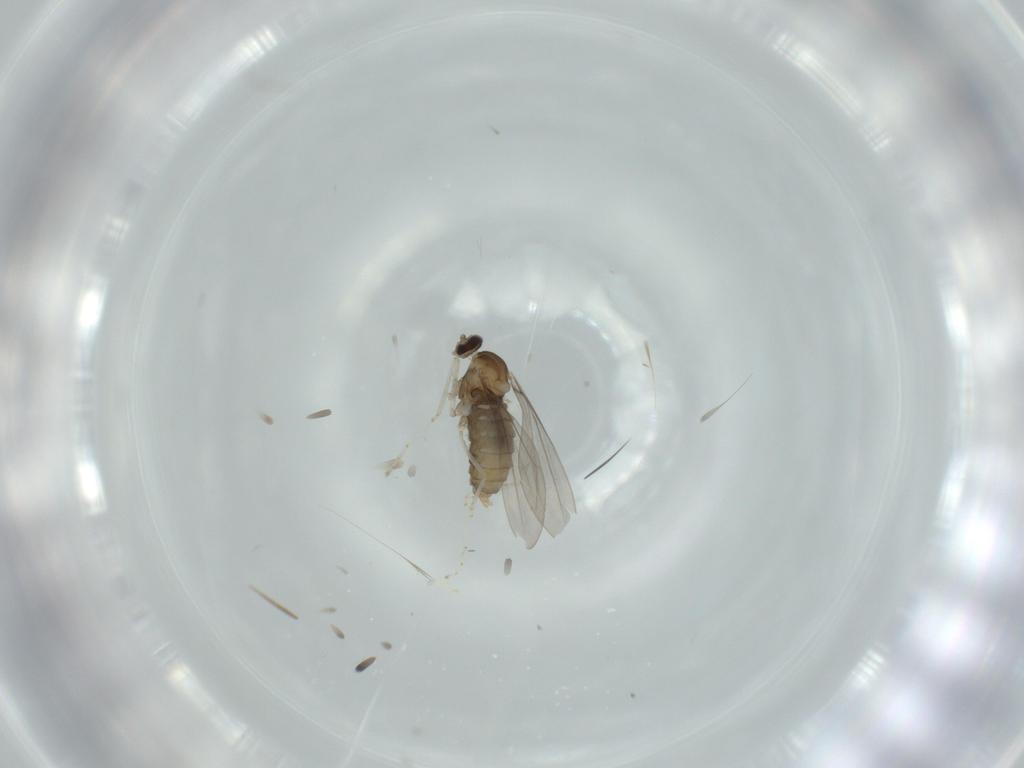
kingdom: Animalia
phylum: Arthropoda
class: Insecta
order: Diptera
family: Cecidomyiidae
